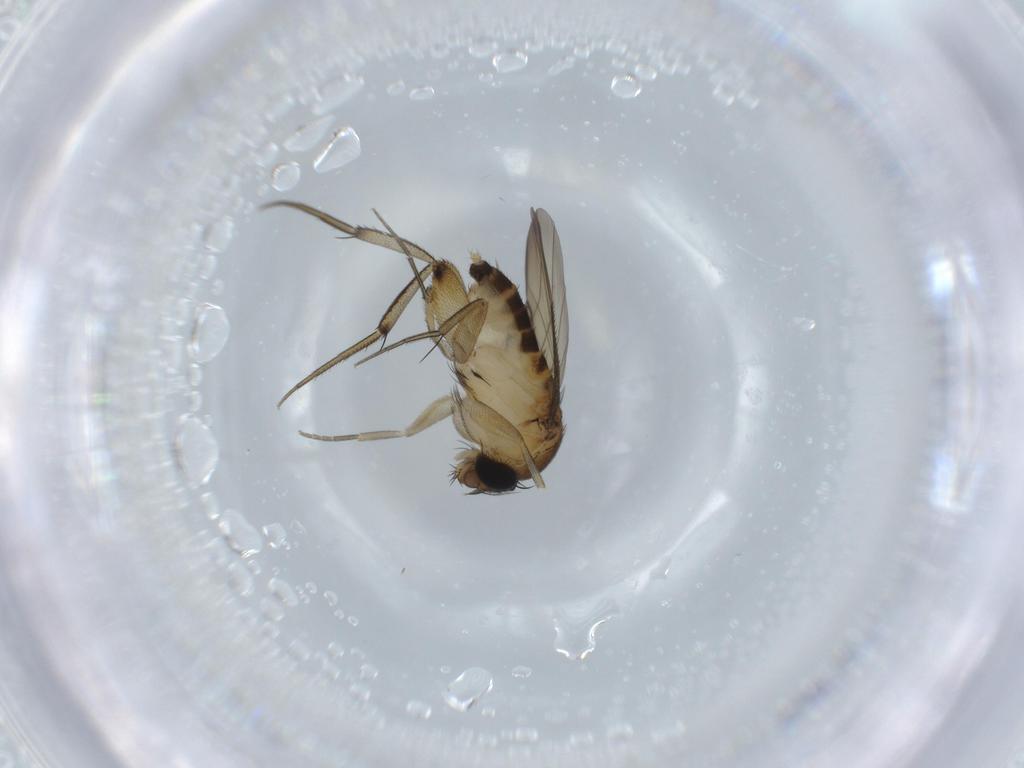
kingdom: Animalia
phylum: Arthropoda
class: Insecta
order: Diptera
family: Phoridae
